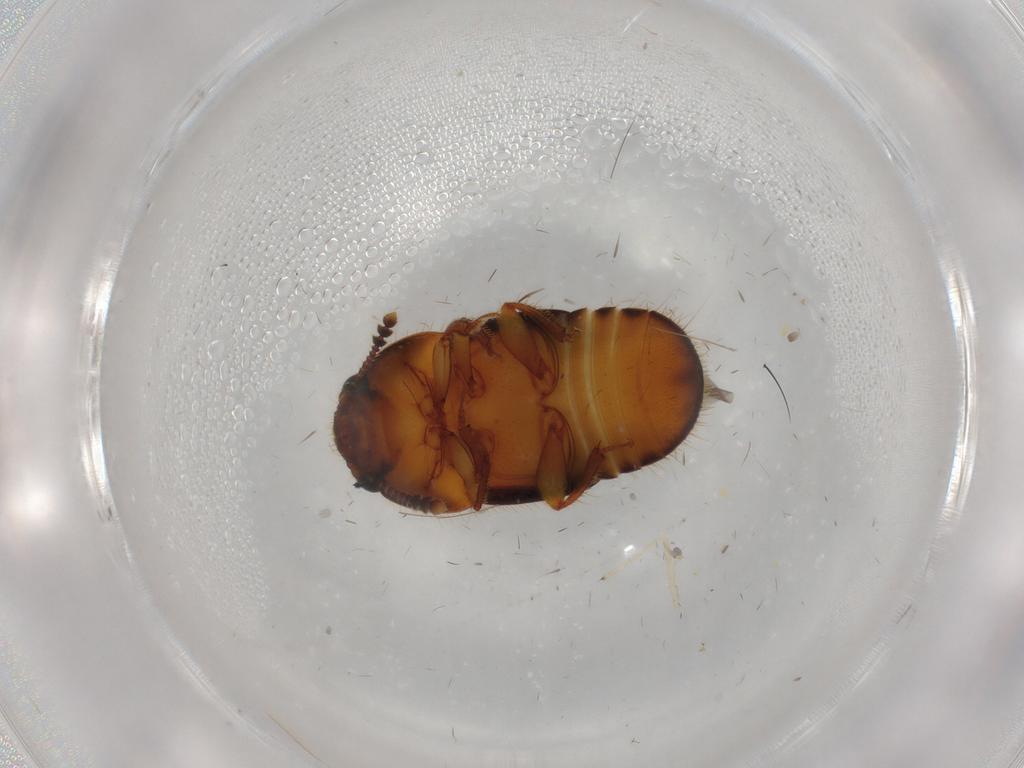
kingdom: Animalia
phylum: Arthropoda
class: Insecta
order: Coleoptera
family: Nitidulidae
